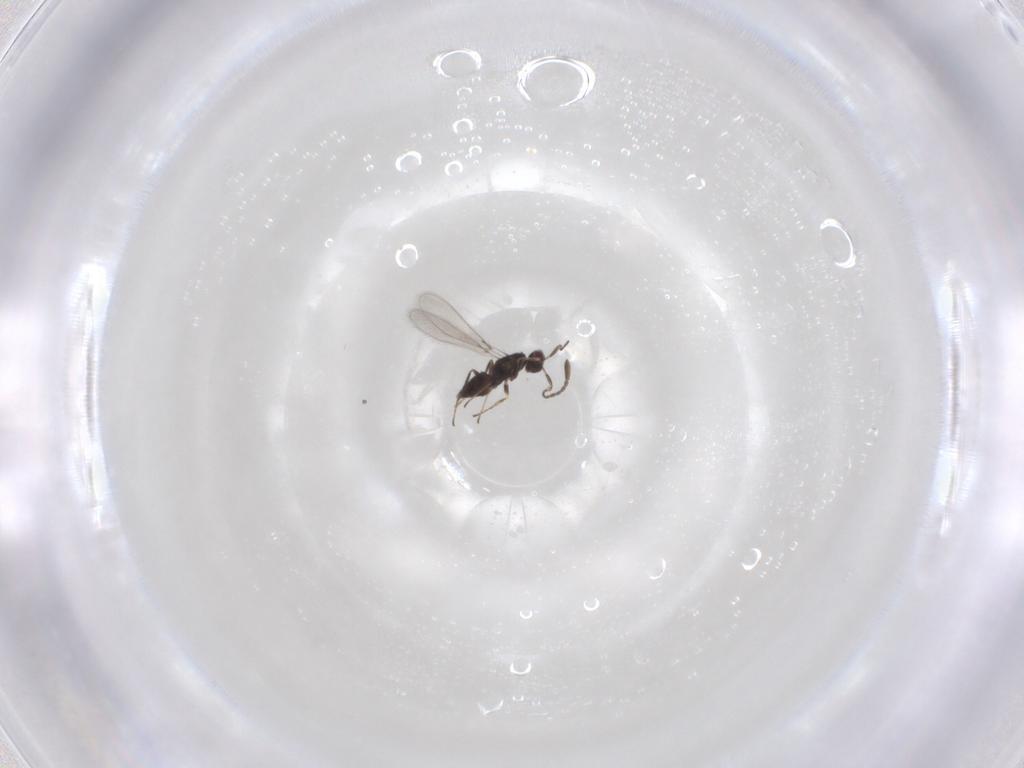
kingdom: Animalia
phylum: Arthropoda
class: Insecta
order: Hymenoptera
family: Mymaridae
